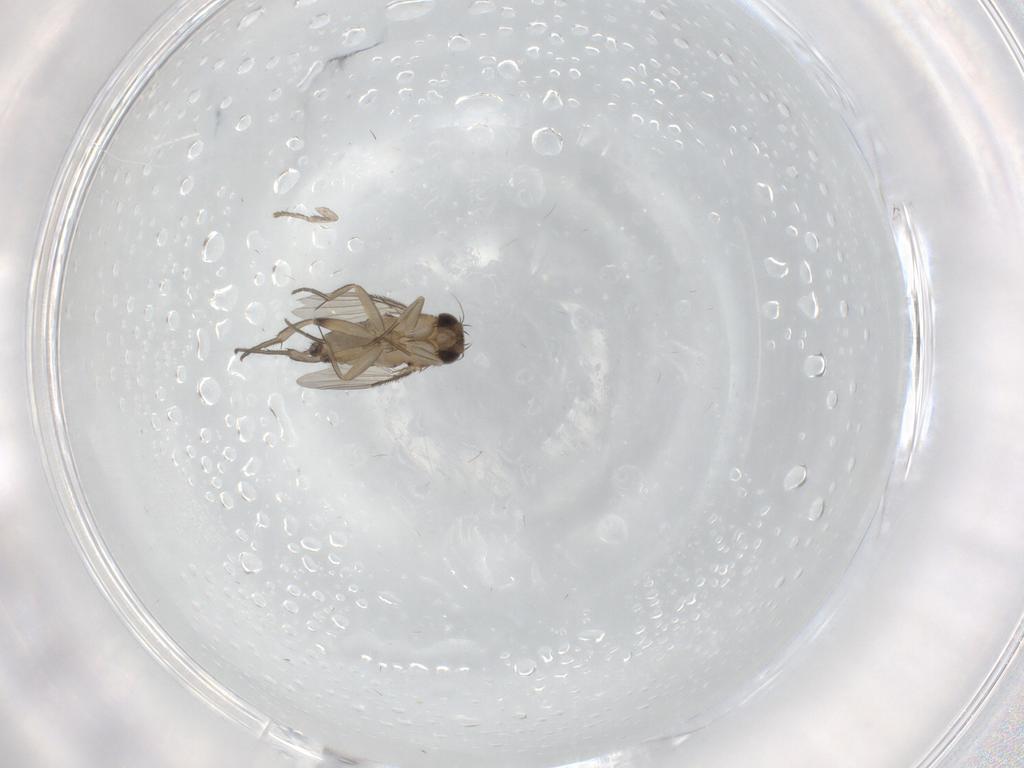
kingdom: Animalia
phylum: Arthropoda
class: Insecta
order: Diptera
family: Phoridae
